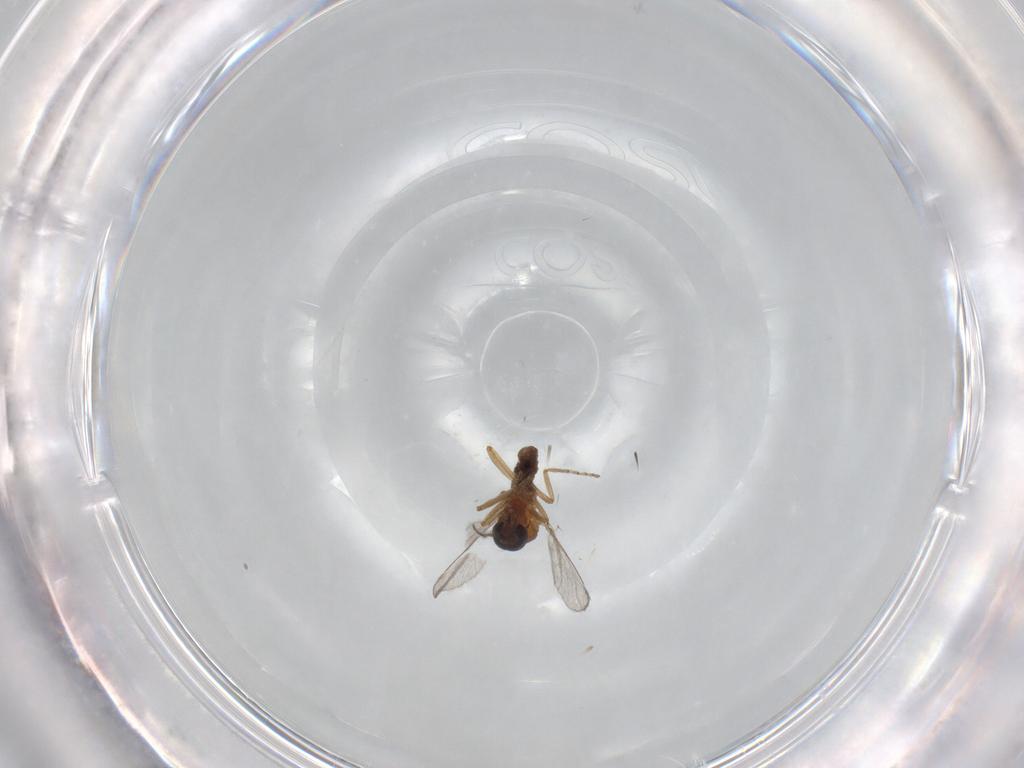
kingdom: Animalia
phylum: Arthropoda
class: Insecta
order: Diptera
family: Ceratopogonidae
